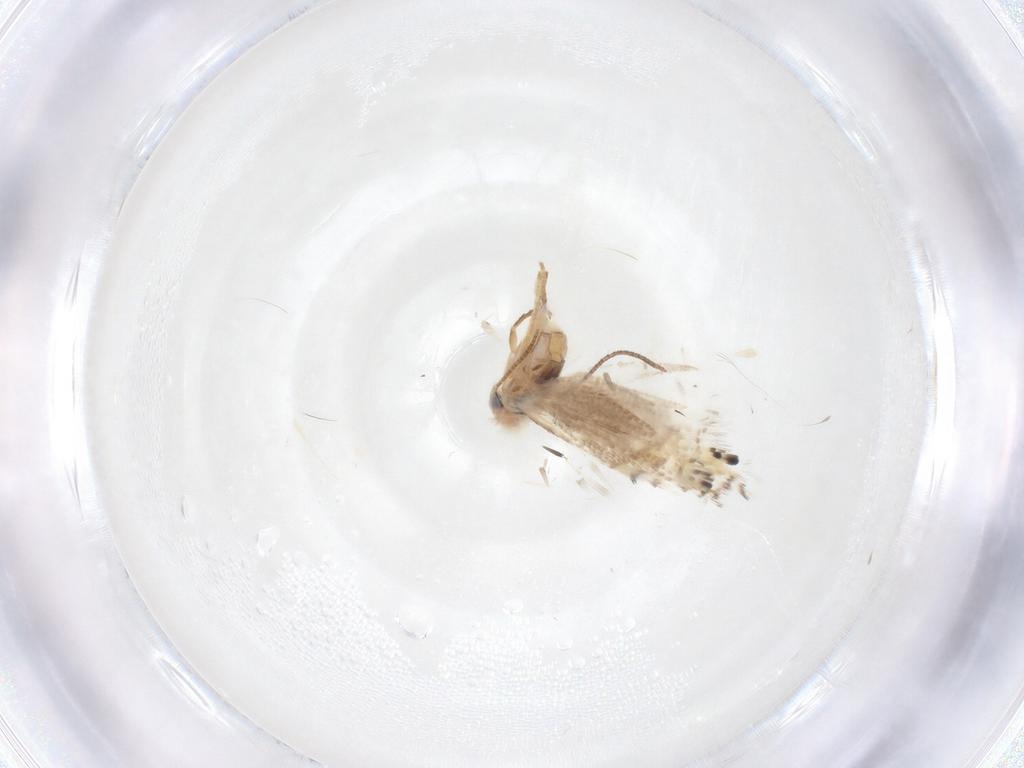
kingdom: Animalia
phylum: Arthropoda
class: Insecta
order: Lepidoptera
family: Lyonetiidae
